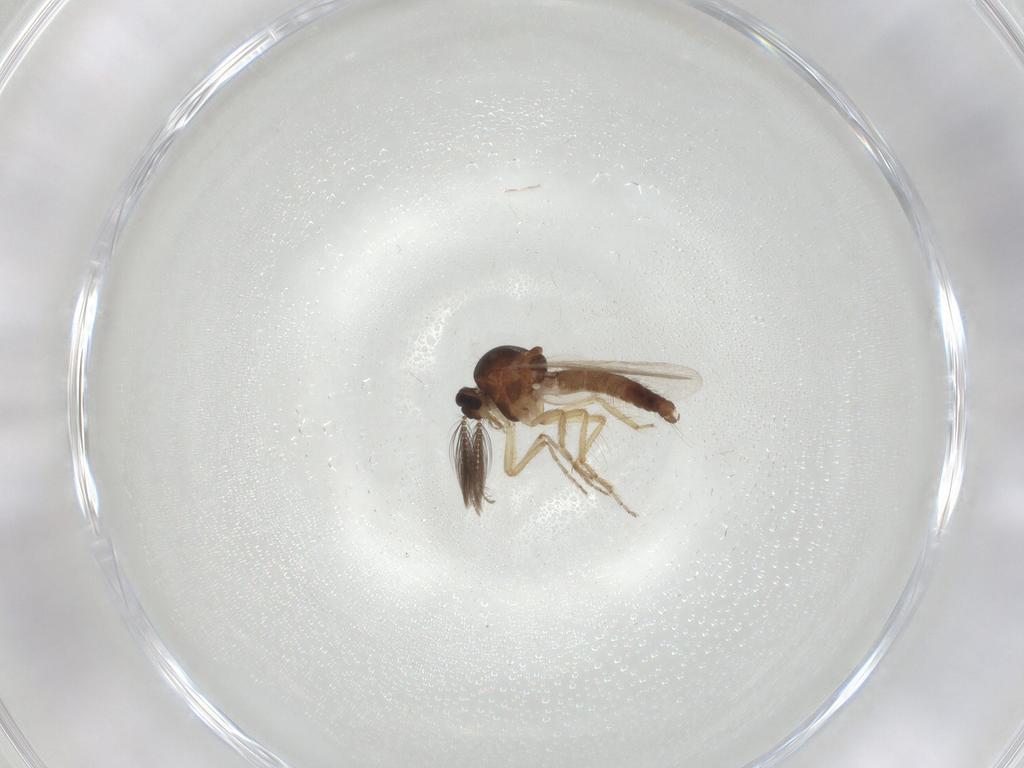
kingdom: Animalia
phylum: Arthropoda
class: Insecta
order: Diptera
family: Ceratopogonidae
